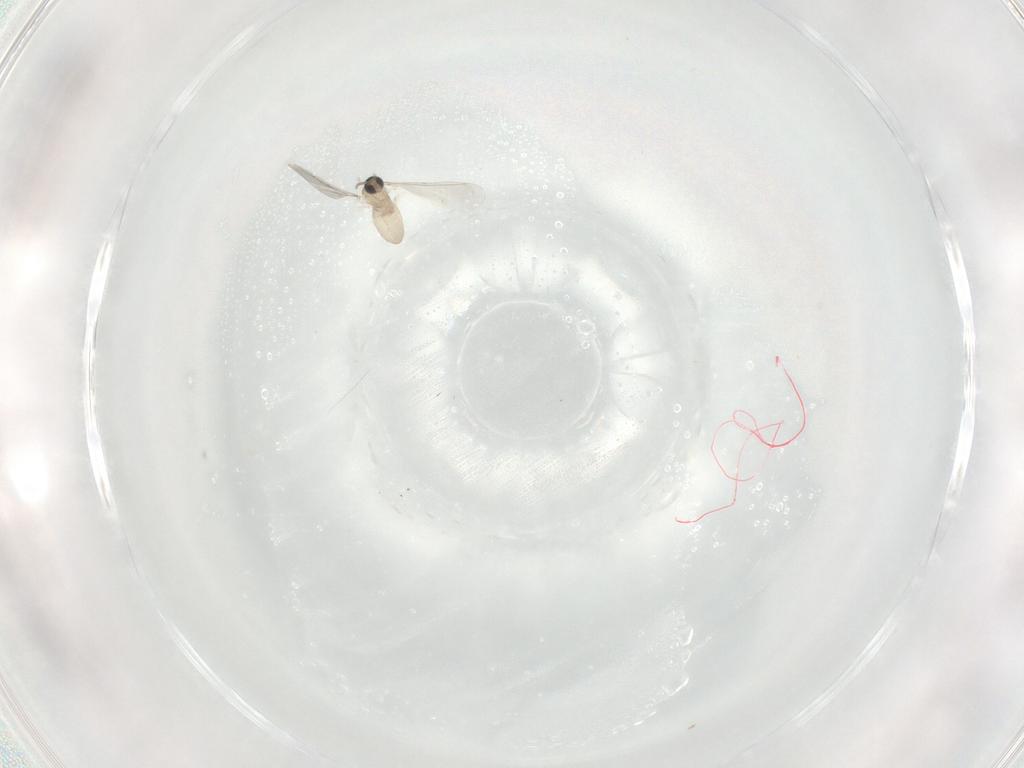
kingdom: Animalia
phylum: Arthropoda
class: Insecta
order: Diptera
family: Cecidomyiidae
